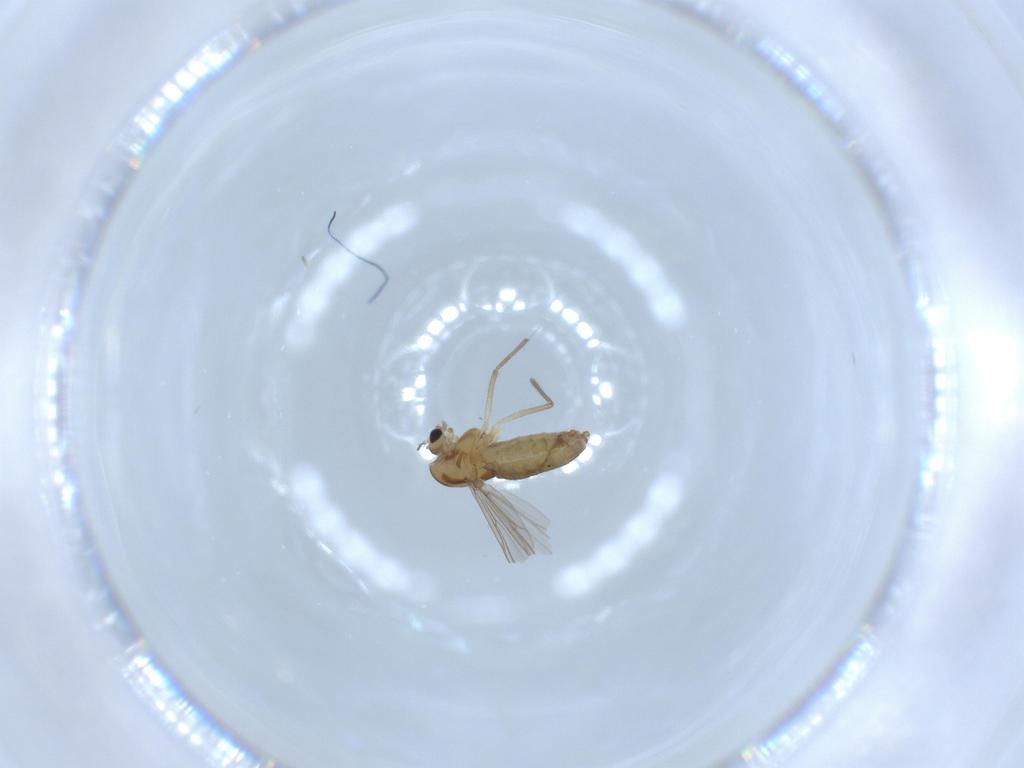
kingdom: Animalia
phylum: Arthropoda
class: Insecta
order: Diptera
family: Chironomidae
